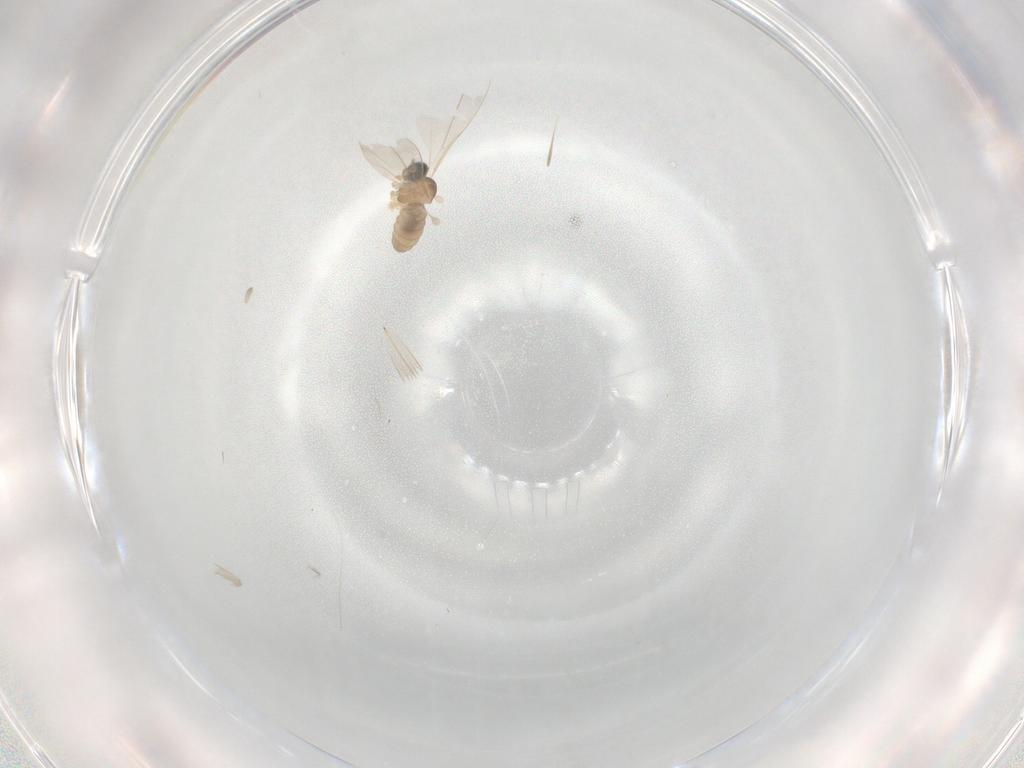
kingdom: Animalia
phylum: Arthropoda
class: Insecta
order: Diptera
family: Cecidomyiidae
